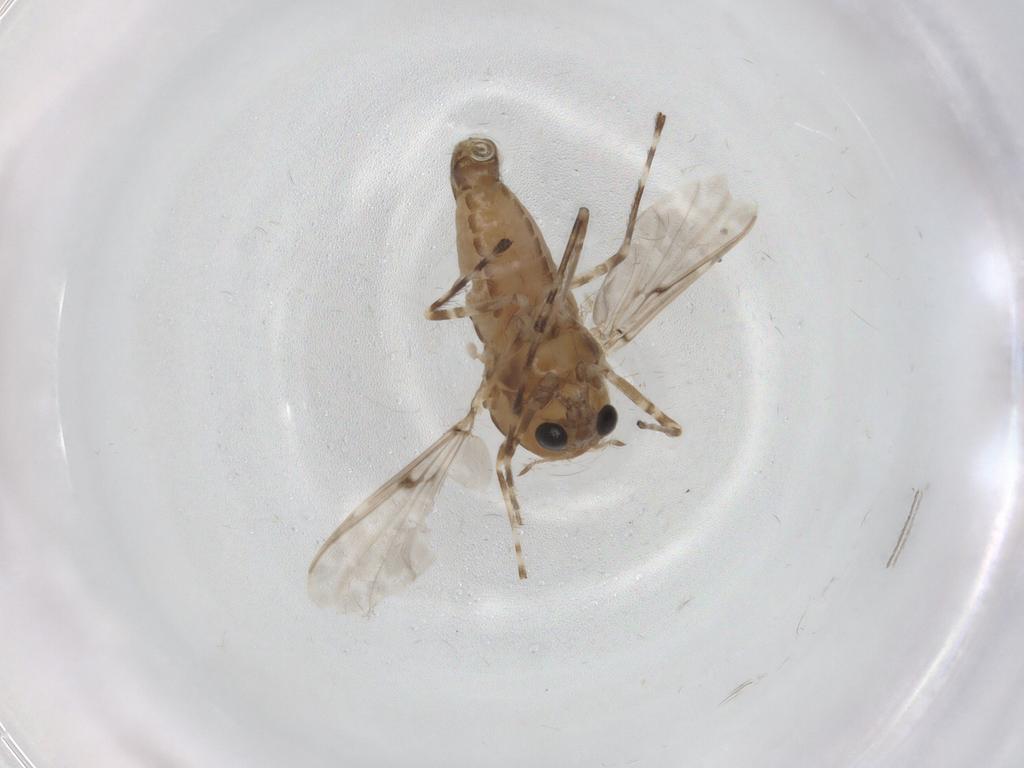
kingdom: Animalia
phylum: Arthropoda
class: Insecta
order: Diptera
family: Chironomidae
